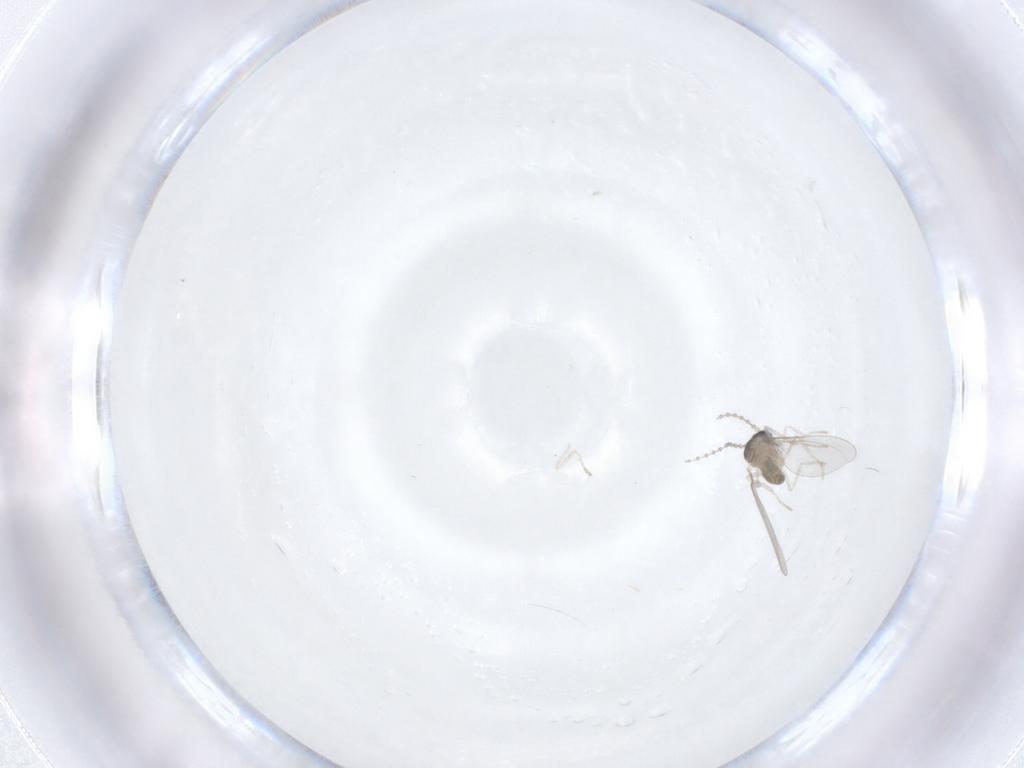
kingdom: Animalia
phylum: Arthropoda
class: Insecta
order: Diptera
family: Cecidomyiidae
